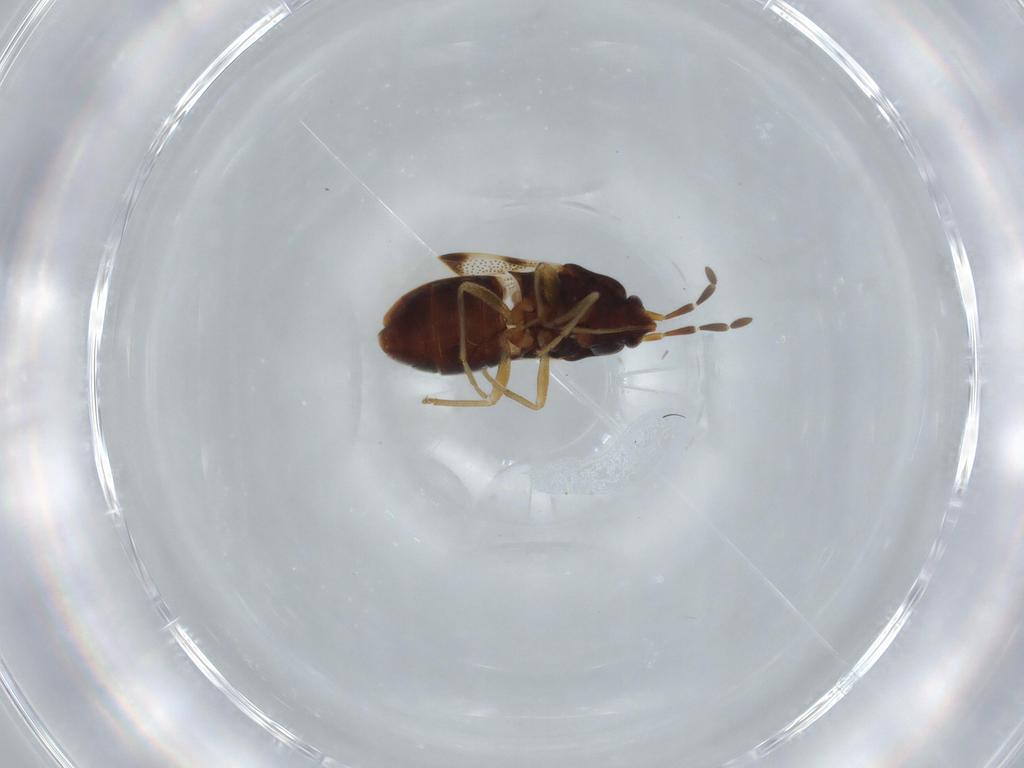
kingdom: Animalia
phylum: Arthropoda
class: Insecta
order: Hemiptera
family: Rhyparochromidae
